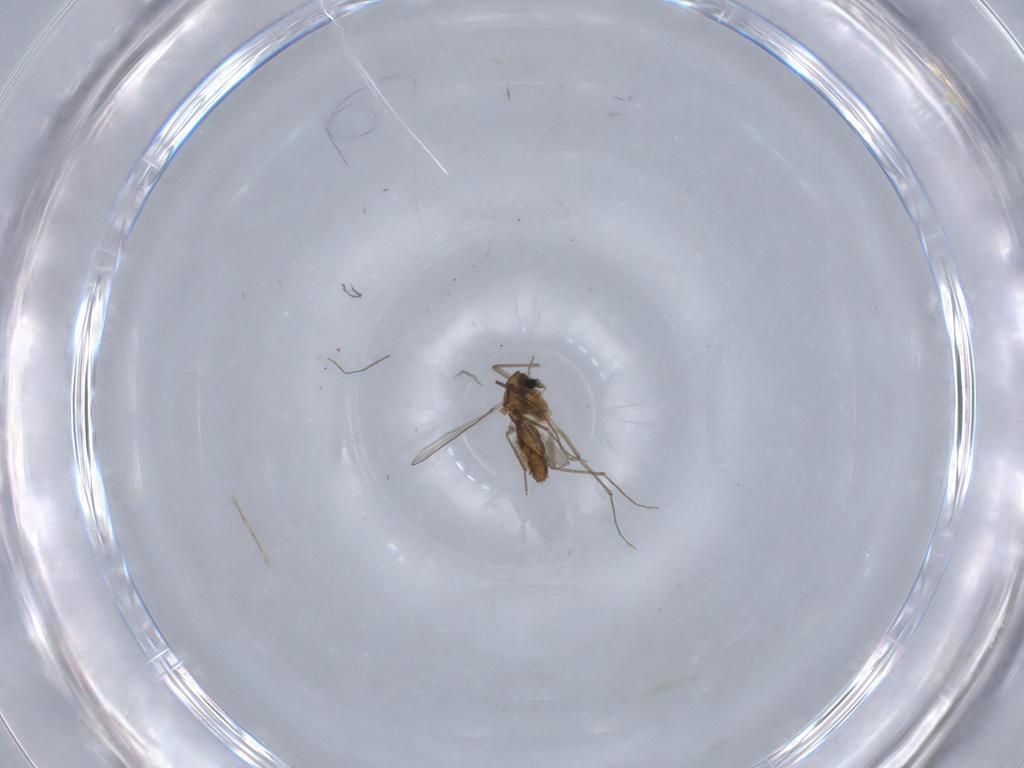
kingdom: Animalia
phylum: Arthropoda
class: Insecta
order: Diptera
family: Chironomidae
